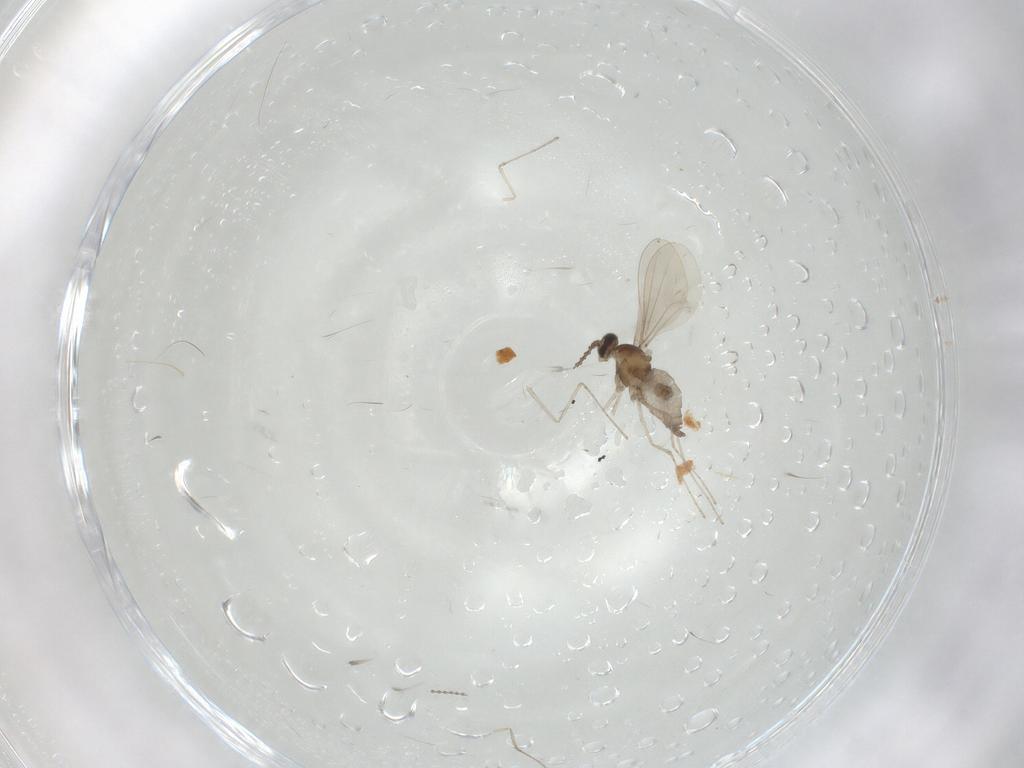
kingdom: Animalia
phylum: Arthropoda
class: Insecta
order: Diptera
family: Cecidomyiidae
